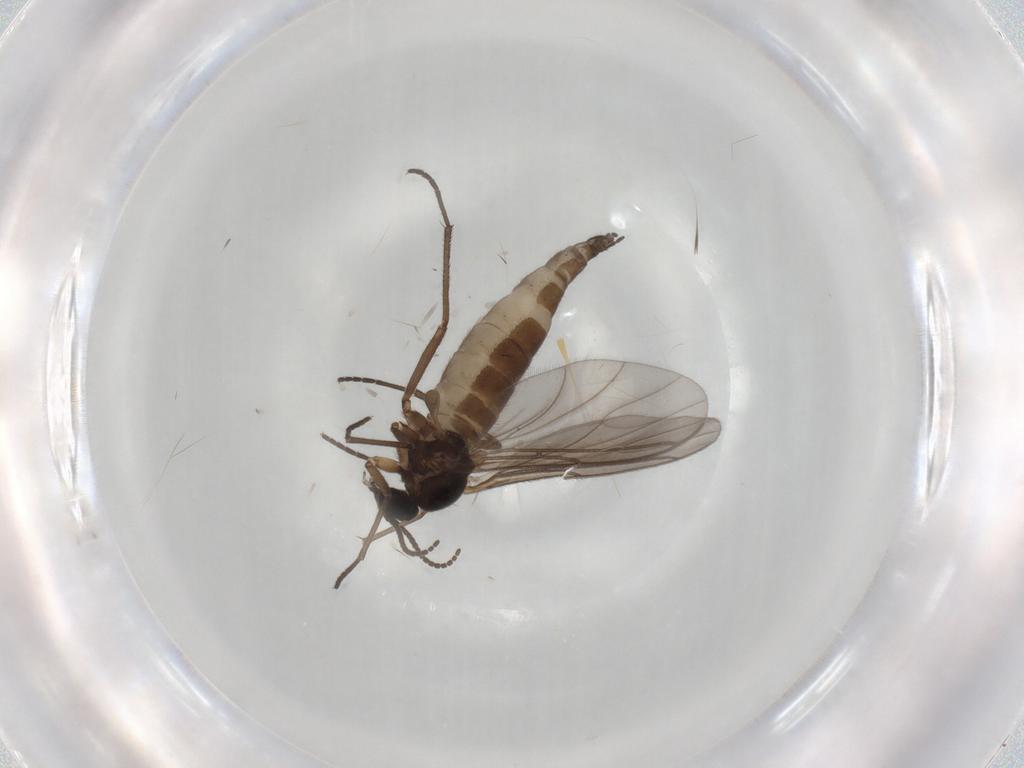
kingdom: Animalia
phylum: Arthropoda
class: Insecta
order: Diptera
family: Sciaridae
